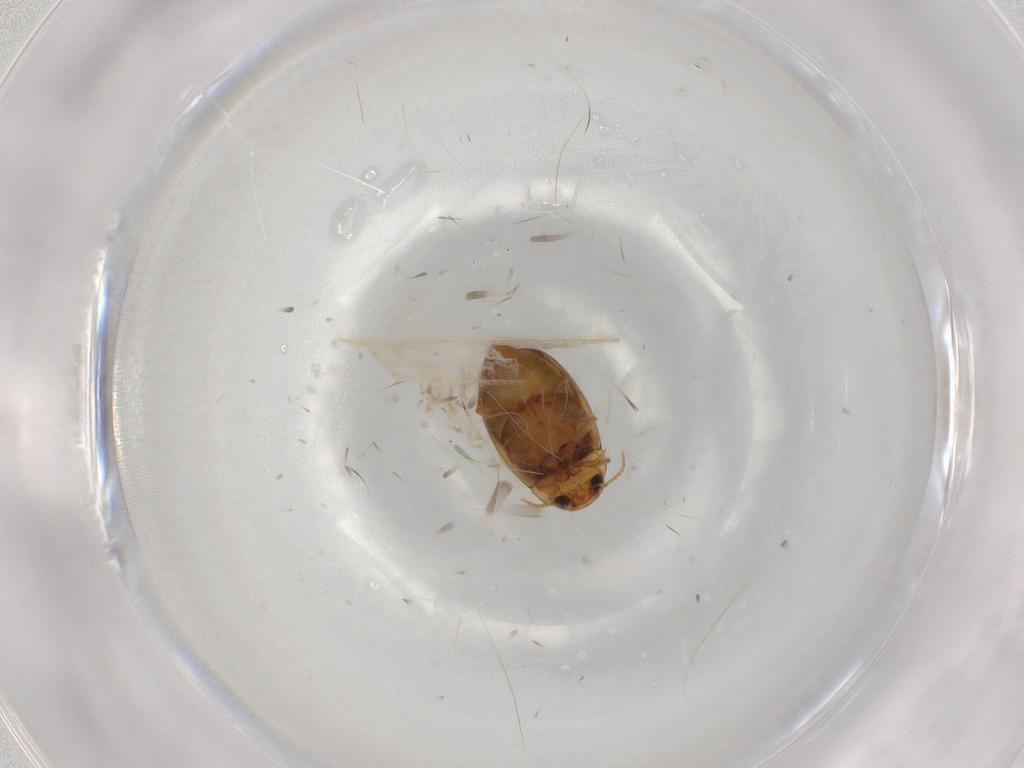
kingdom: Animalia
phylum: Arthropoda
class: Insecta
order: Coleoptera
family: Dytiscidae
